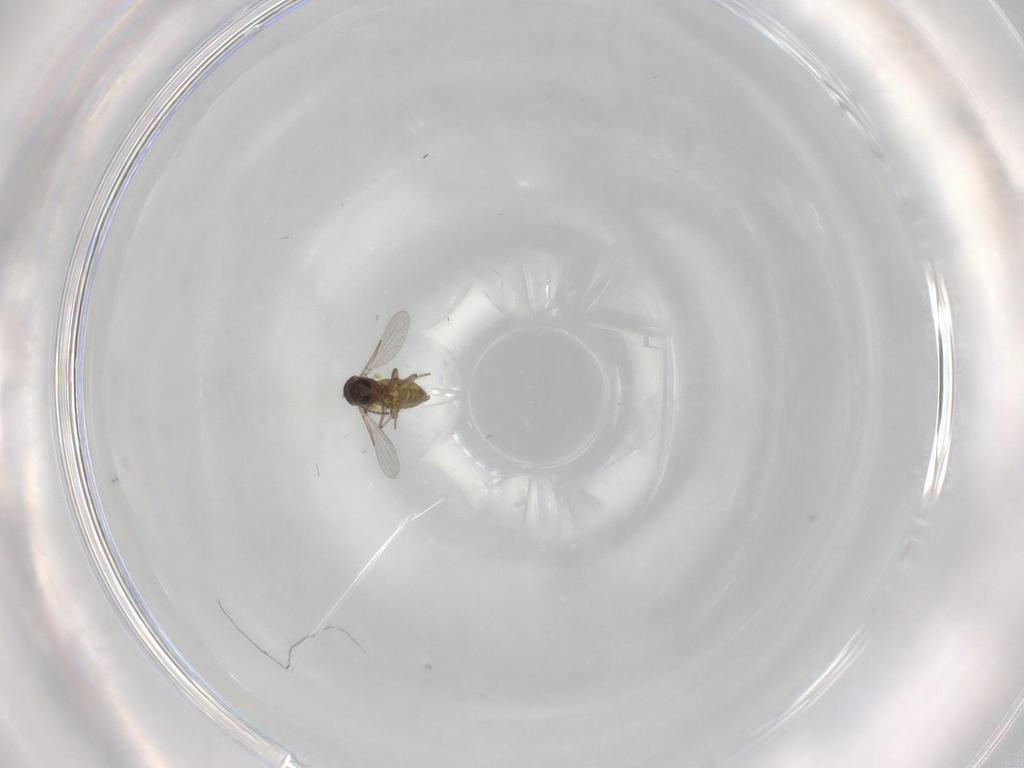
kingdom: Animalia
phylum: Arthropoda
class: Insecta
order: Diptera
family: Ceratopogonidae
